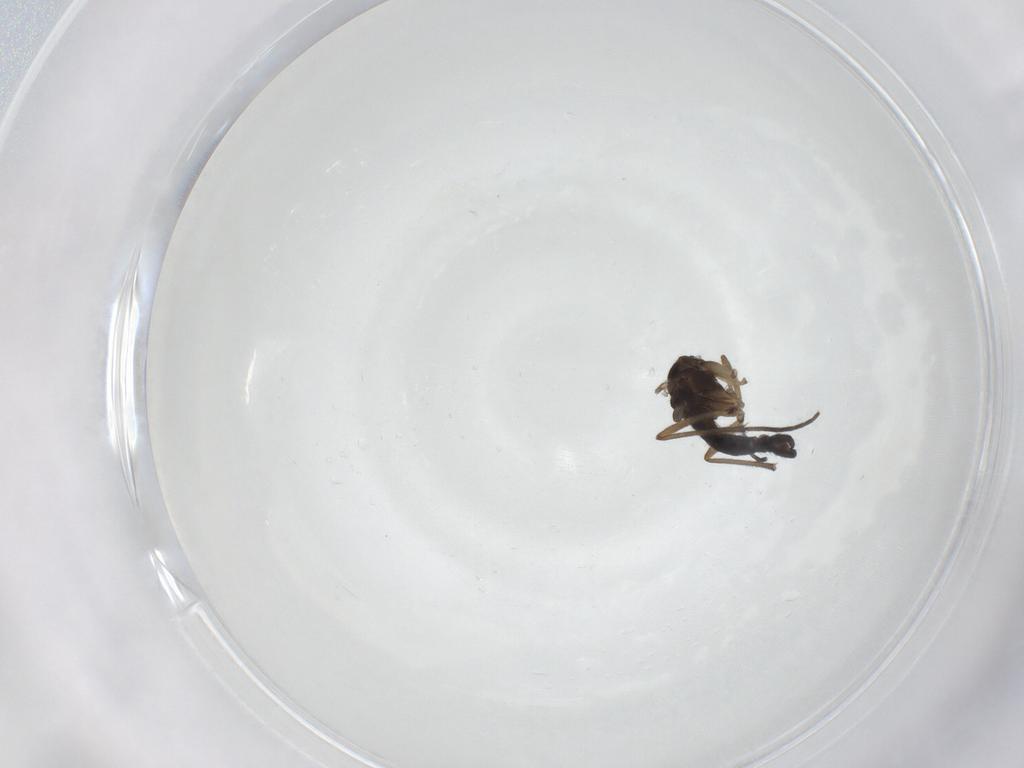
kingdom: Animalia
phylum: Arthropoda
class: Insecta
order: Diptera
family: Sciaridae
